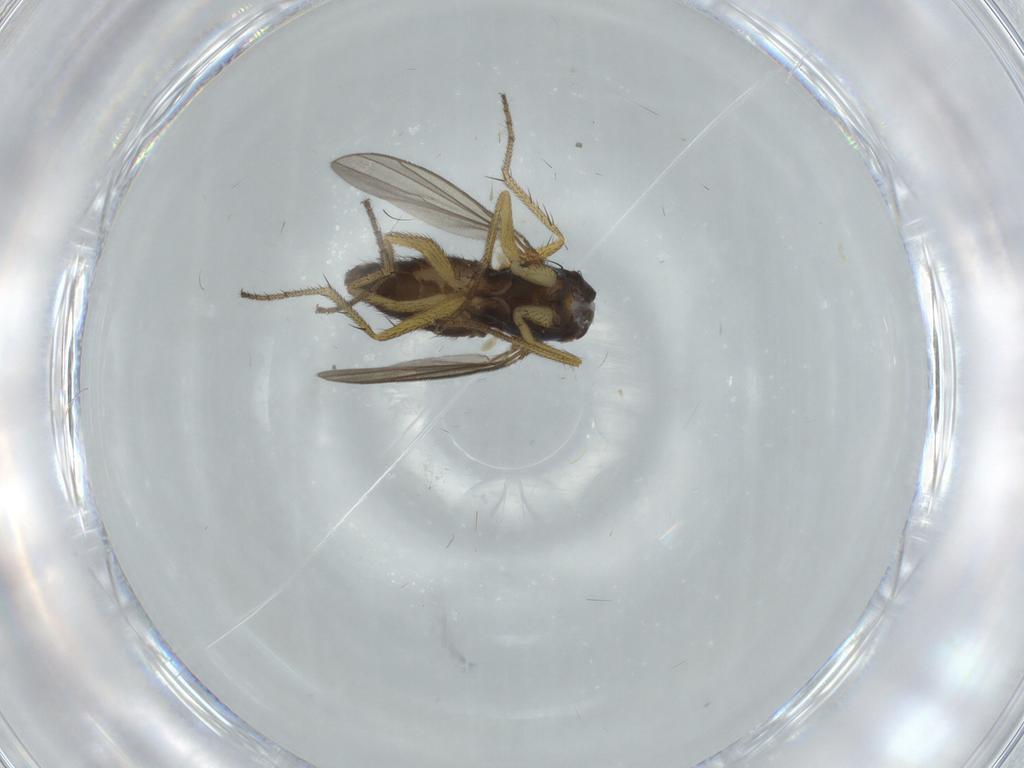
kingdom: Animalia
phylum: Arthropoda
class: Insecta
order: Diptera
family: Dolichopodidae
